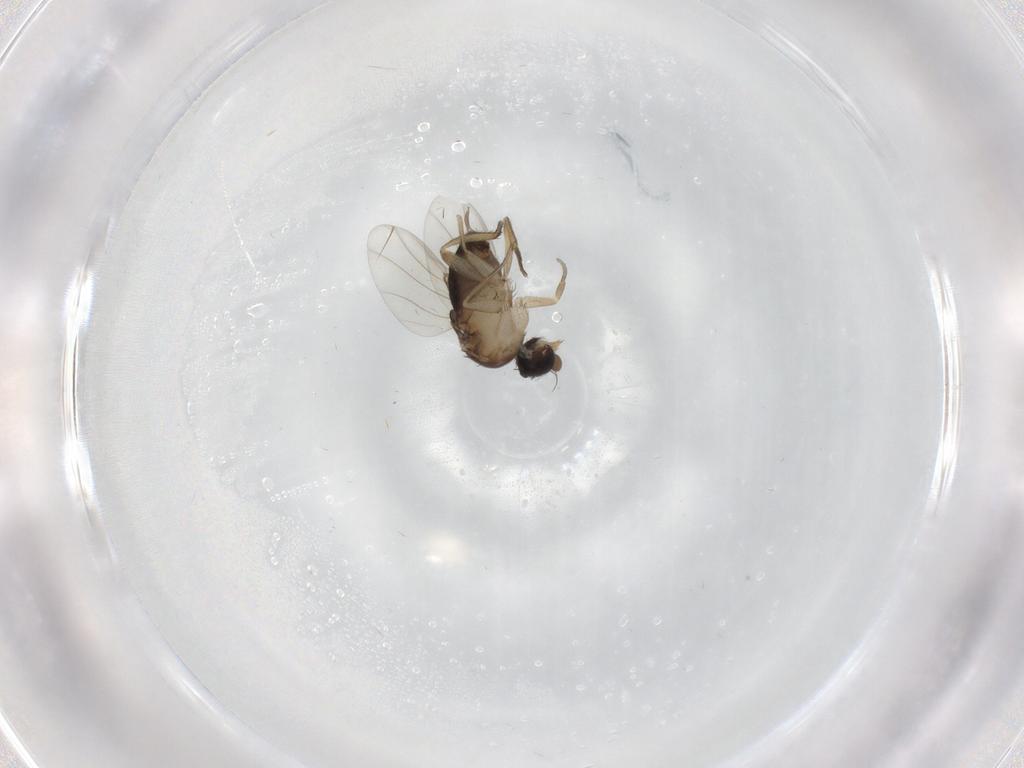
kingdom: Animalia
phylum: Arthropoda
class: Insecta
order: Diptera
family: Phoridae
